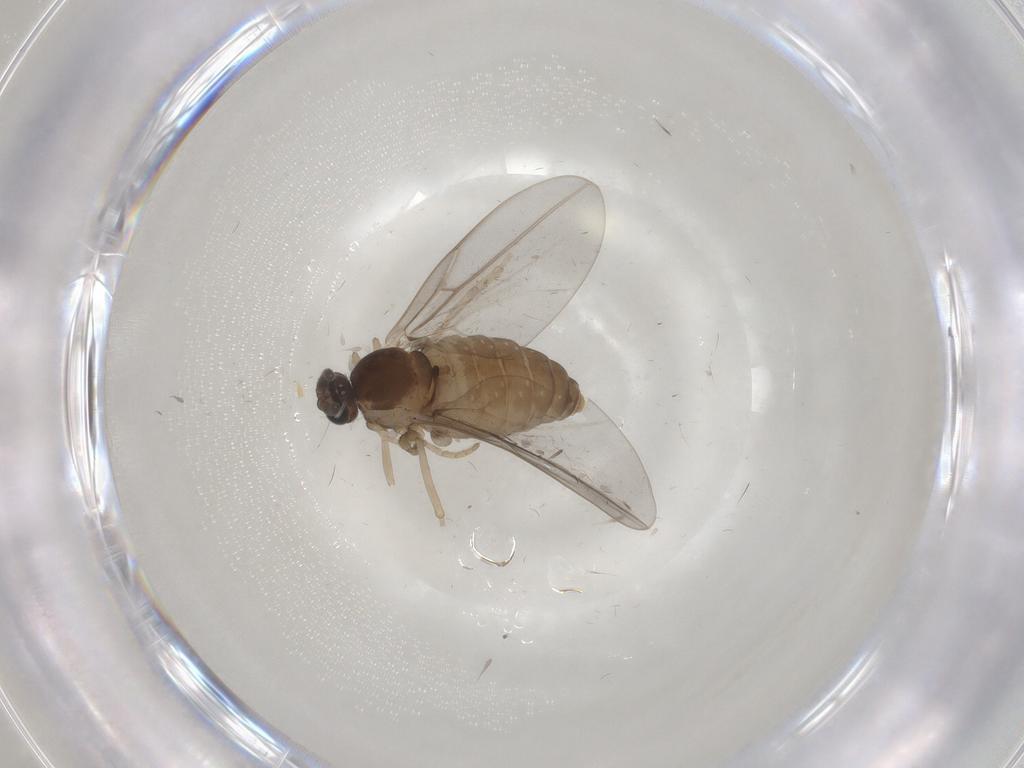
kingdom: Animalia
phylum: Arthropoda
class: Insecta
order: Diptera
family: Cecidomyiidae
